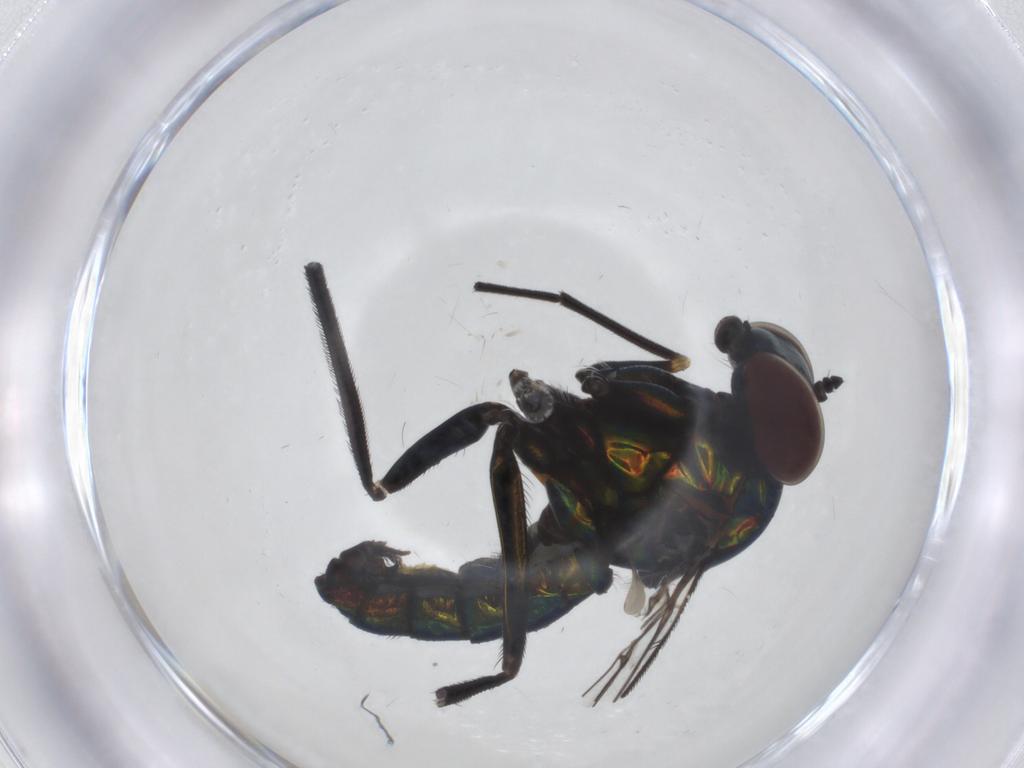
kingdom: Animalia
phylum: Arthropoda
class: Insecta
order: Diptera
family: Dolichopodidae
